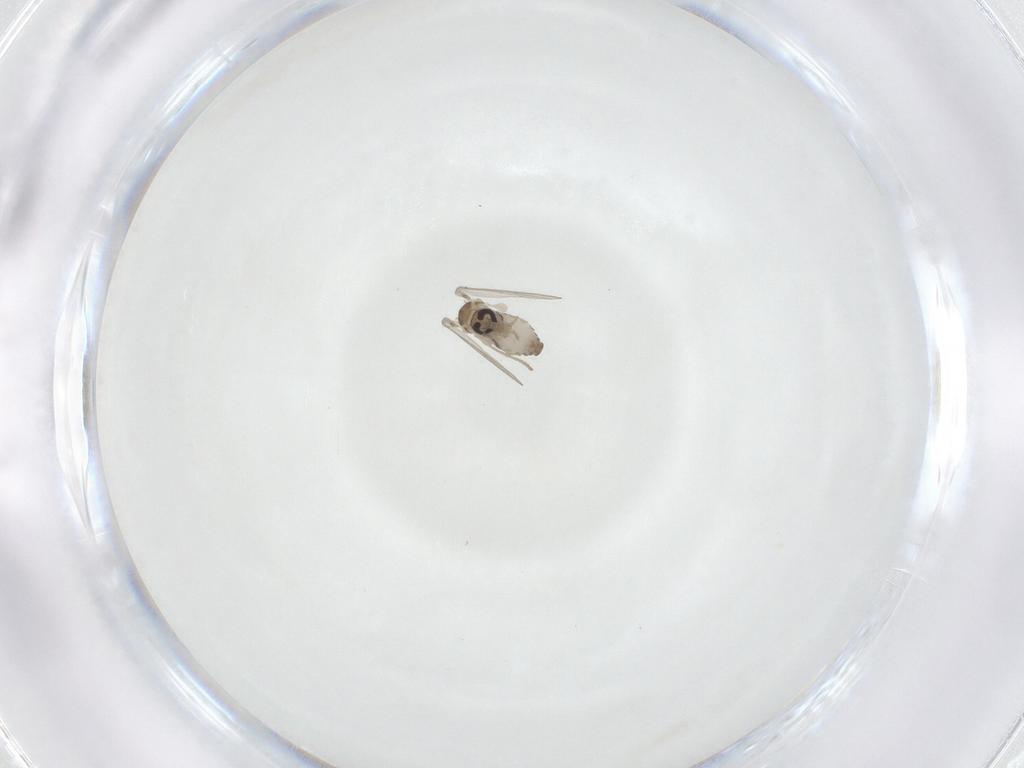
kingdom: Animalia
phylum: Arthropoda
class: Insecta
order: Diptera
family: Psychodidae
